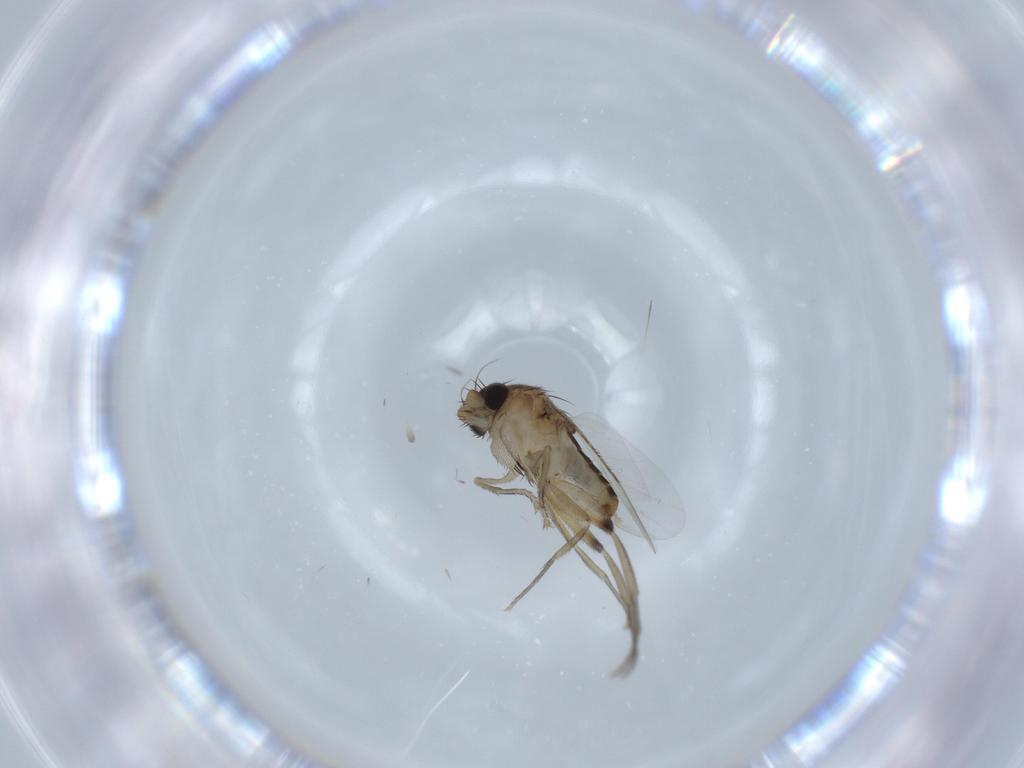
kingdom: Animalia
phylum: Arthropoda
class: Insecta
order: Diptera
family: Phoridae
